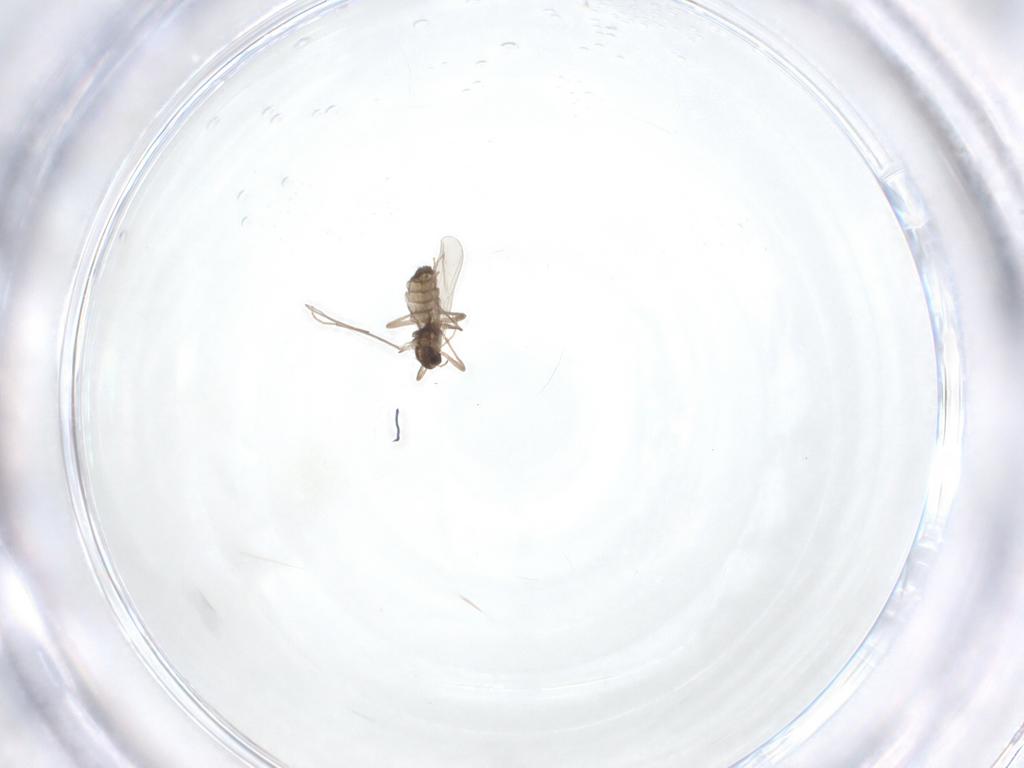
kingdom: Animalia
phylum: Arthropoda
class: Insecta
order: Diptera
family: Chironomidae
